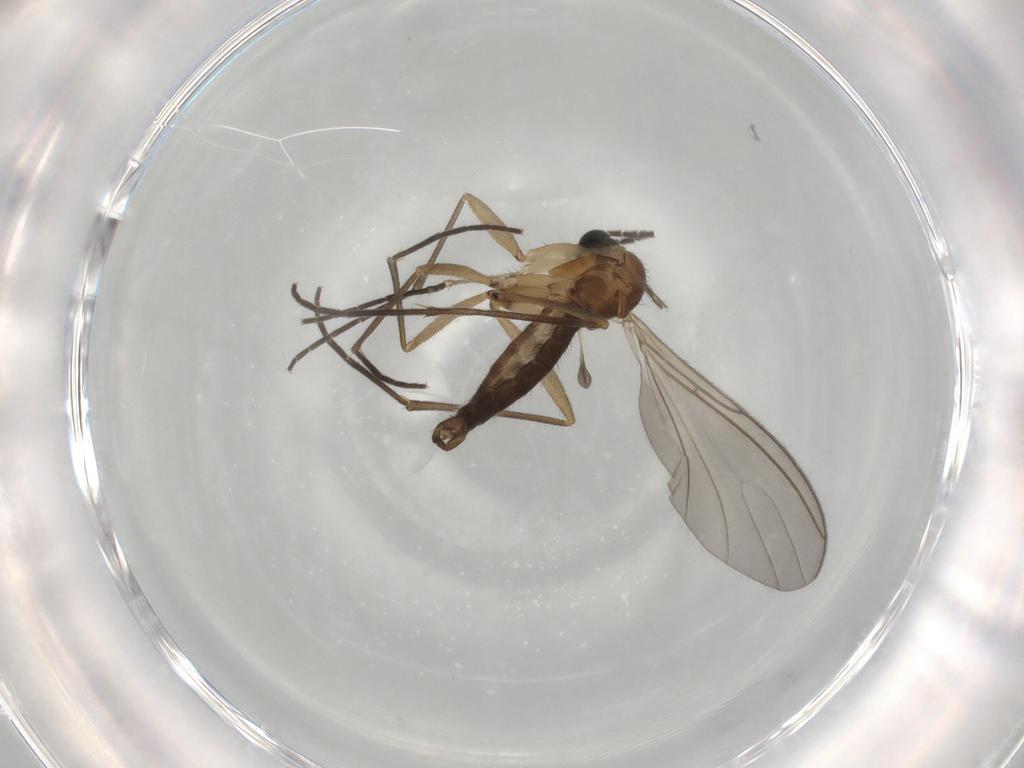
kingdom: Animalia
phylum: Arthropoda
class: Insecta
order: Diptera
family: Sciaridae
